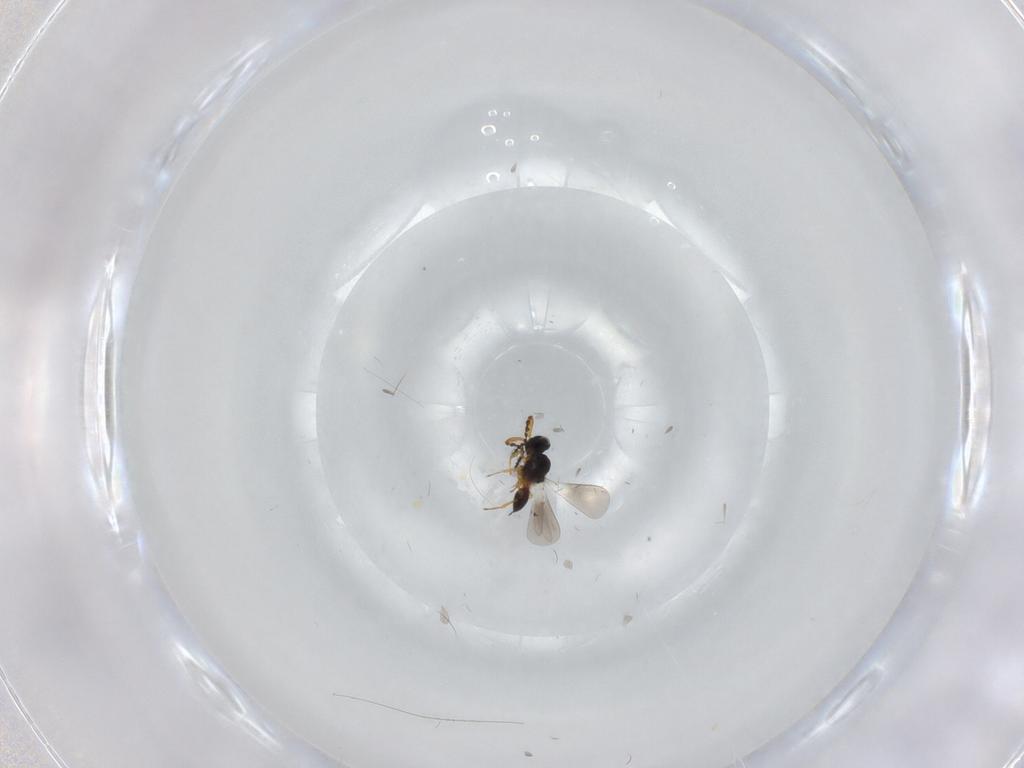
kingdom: Animalia
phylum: Arthropoda
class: Insecta
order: Hymenoptera
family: Platygastridae
